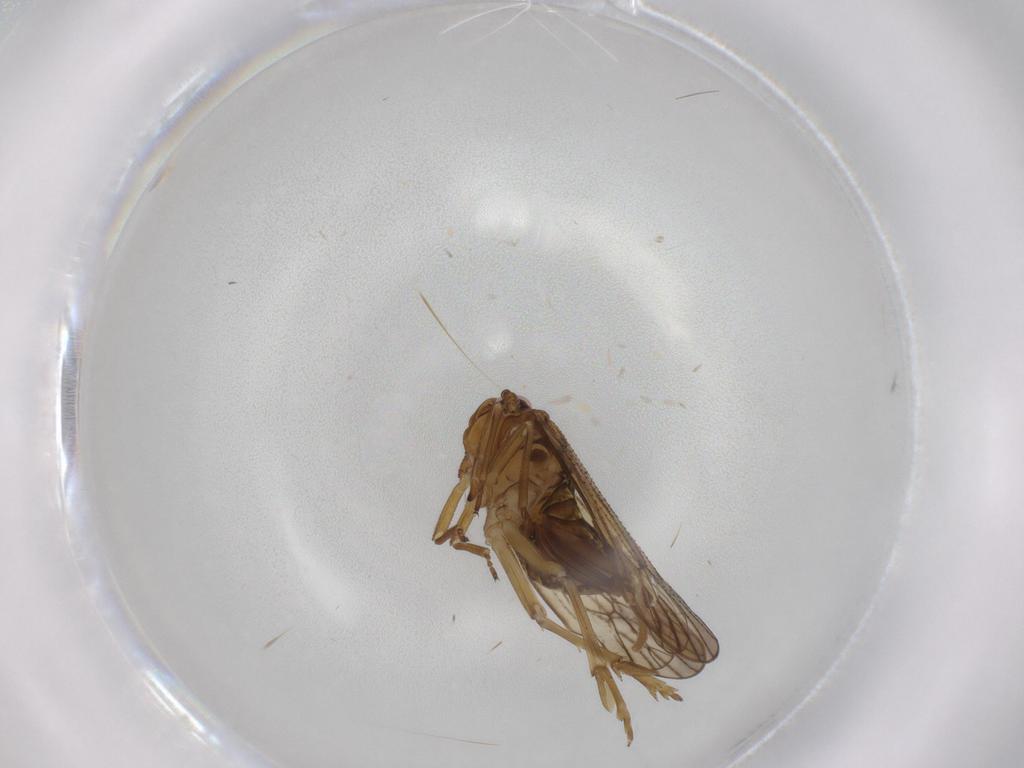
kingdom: Animalia
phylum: Arthropoda
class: Insecta
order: Hemiptera
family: Delphacidae
